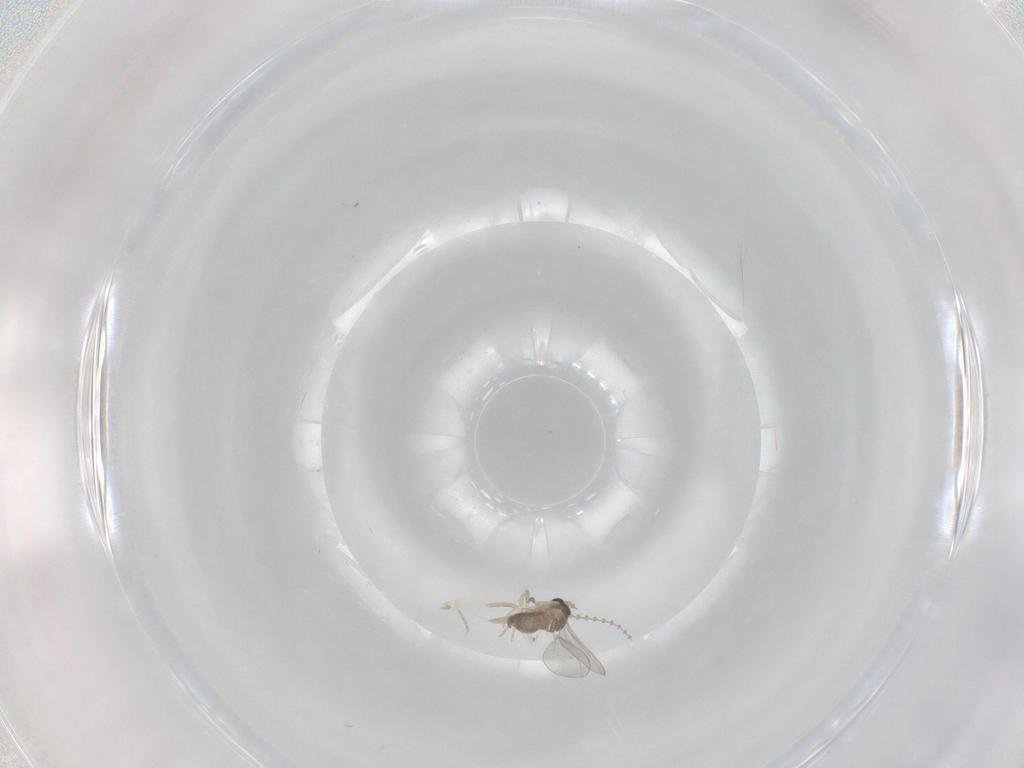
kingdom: Animalia
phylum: Arthropoda
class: Insecta
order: Diptera
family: Cecidomyiidae
